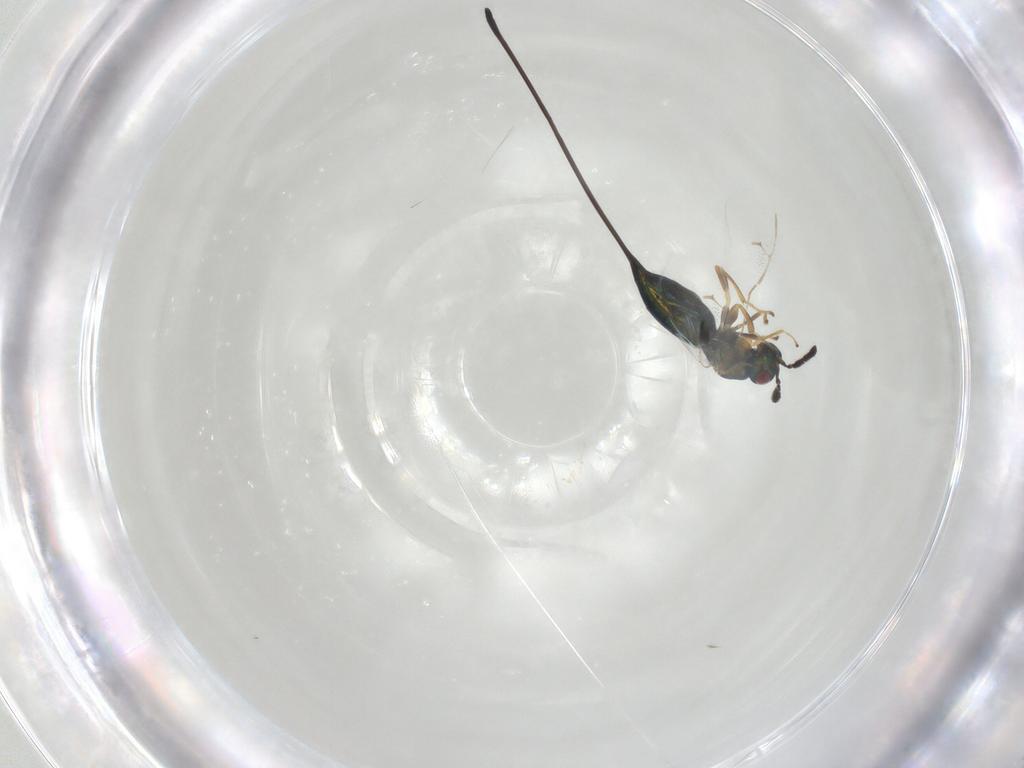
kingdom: Animalia
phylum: Arthropoda
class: Insecta
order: Hymenoptera
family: Pteromalidae
